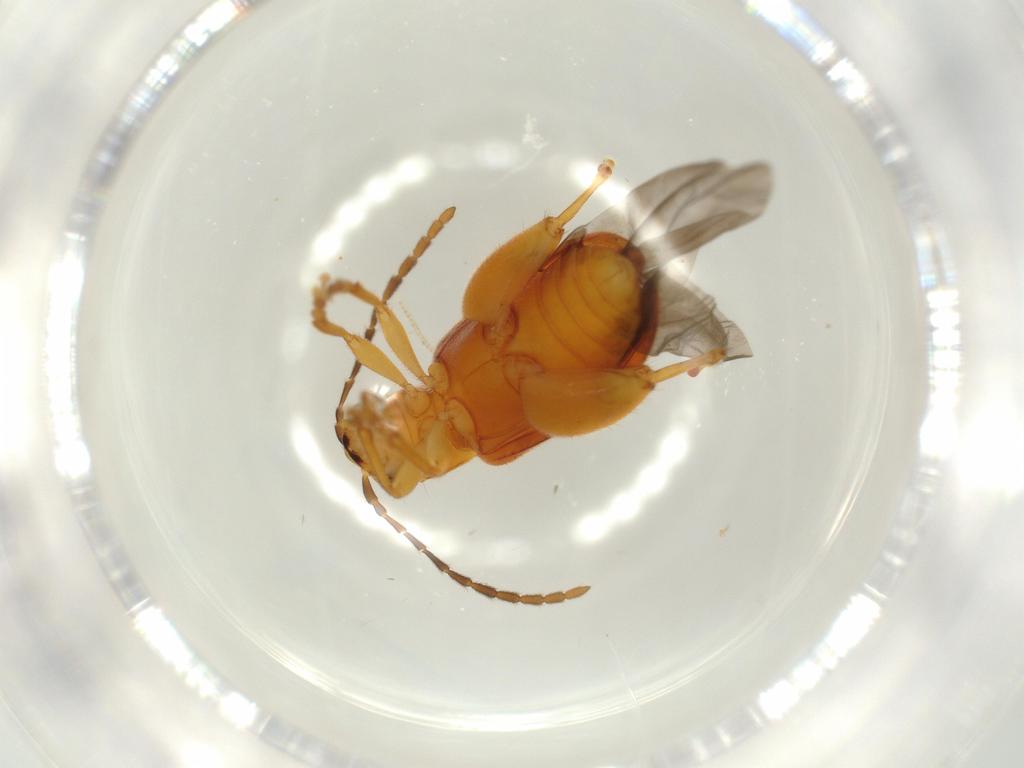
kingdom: Animalia
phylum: Arthropoda
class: Insecta
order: Coleoptera
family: Chrysomelidae
